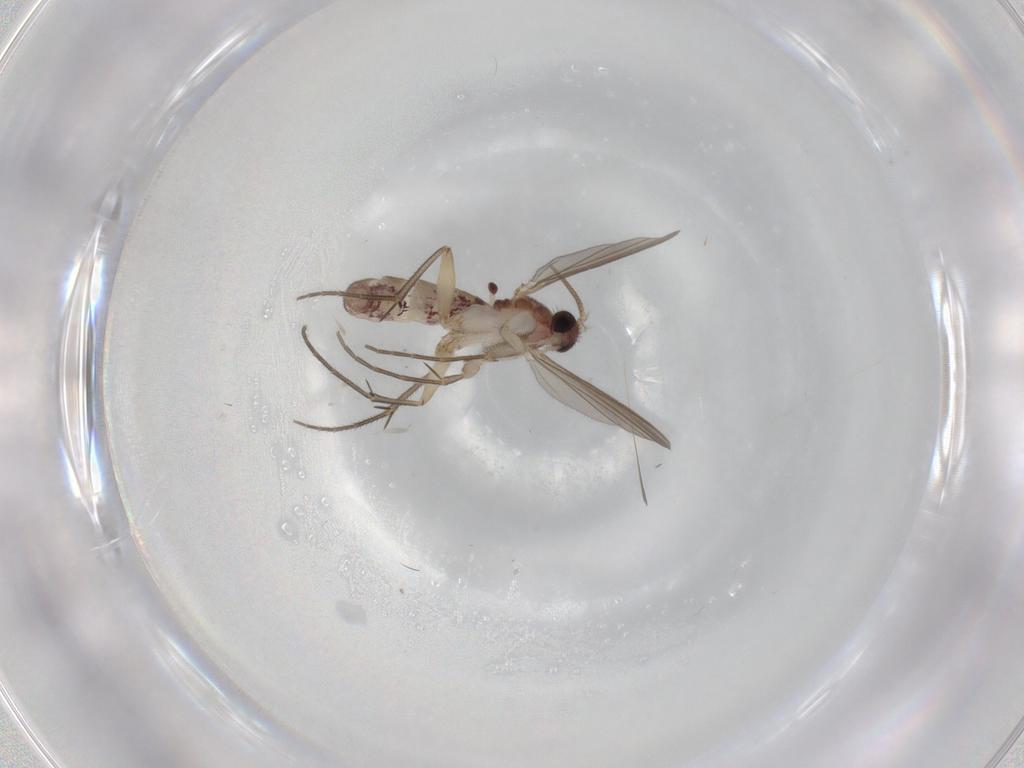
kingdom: Animalia
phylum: Arthropoda
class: Insecta
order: Diptera
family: Mycetophilidae
